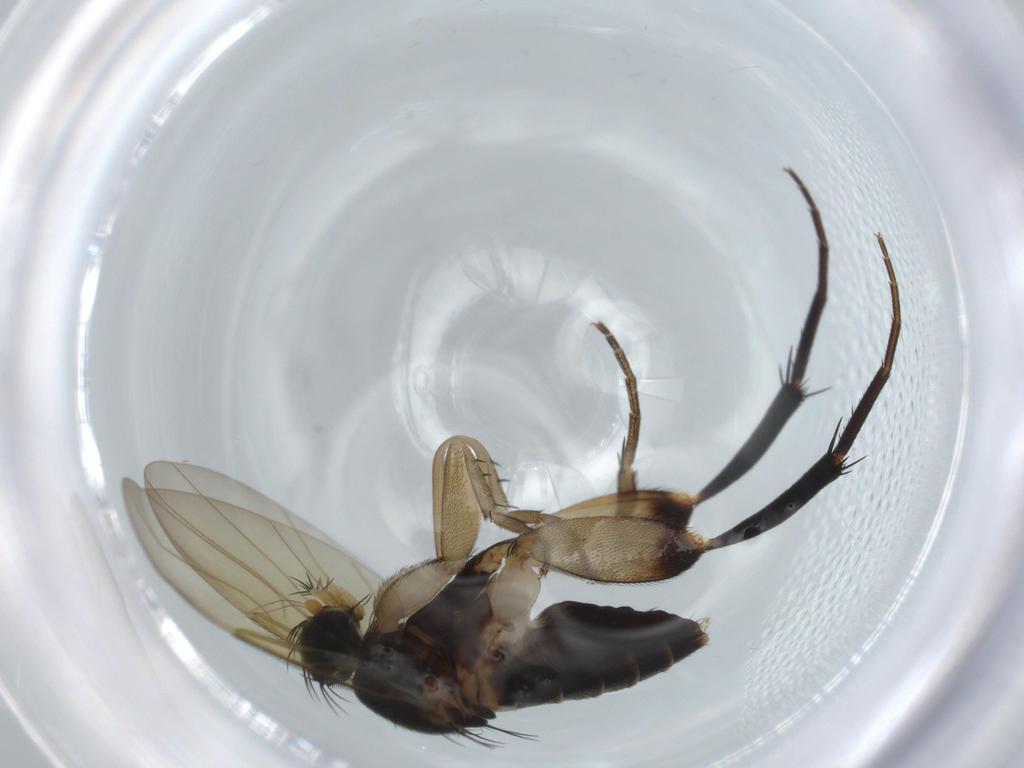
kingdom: Animalia
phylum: Arthropoda
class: Insecta
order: Diptera
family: Phoridae
